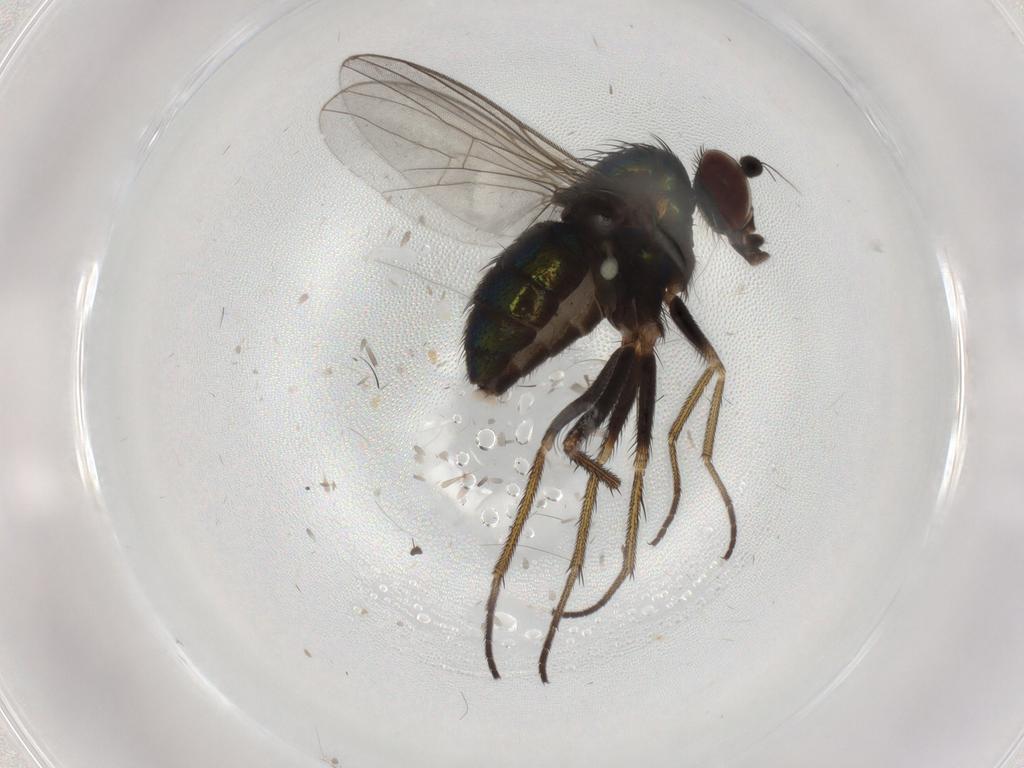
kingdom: Animalia
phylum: Arthropoda
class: Insecta
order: Diptera
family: Dolichopodidae
